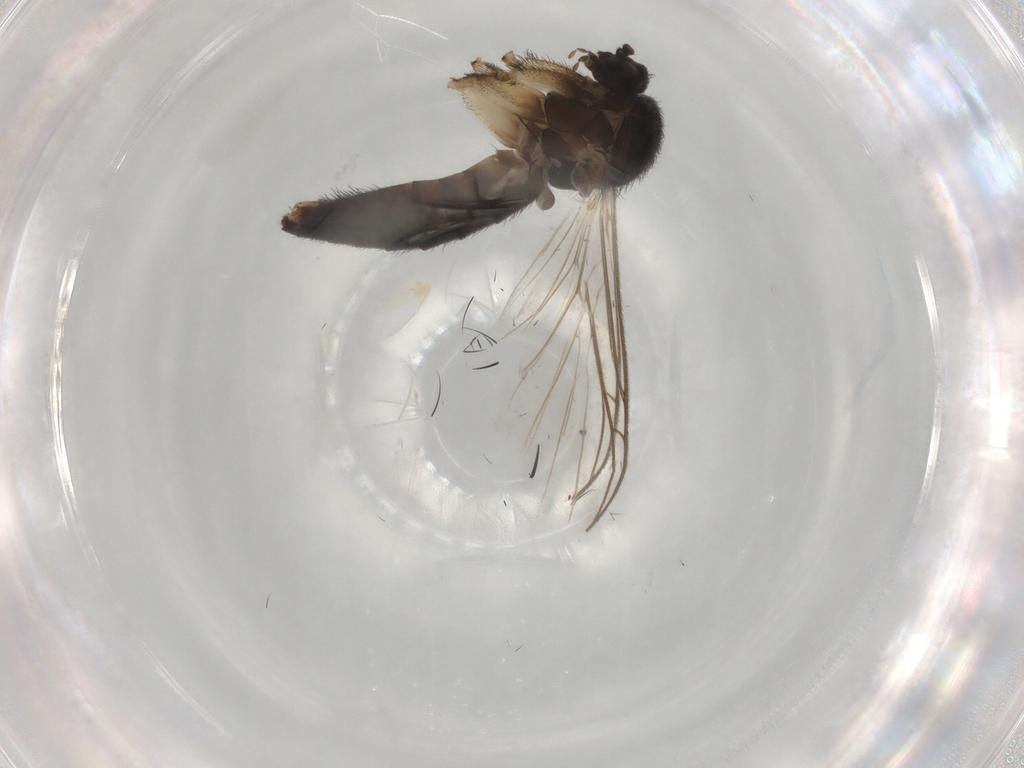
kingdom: Animalia
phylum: Arthropoda
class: Insecta
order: Diptera
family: Keroplatidae
